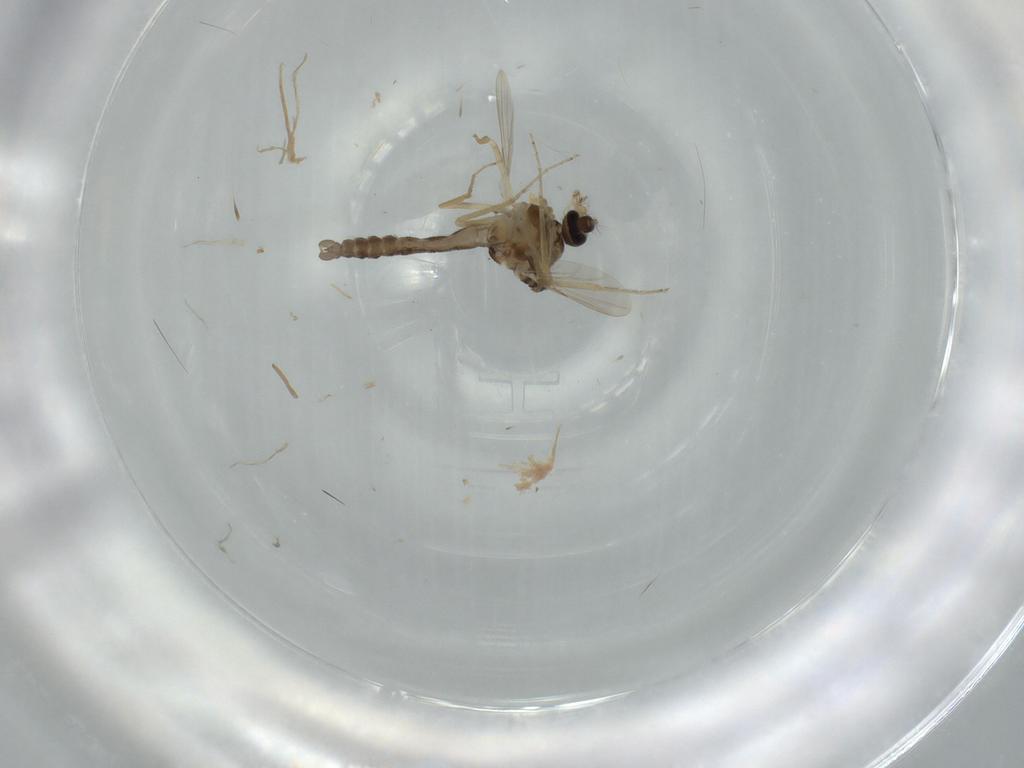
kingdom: Animalia
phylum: Arthropoda
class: Insecta
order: Diptera
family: Ceratopogonidae
